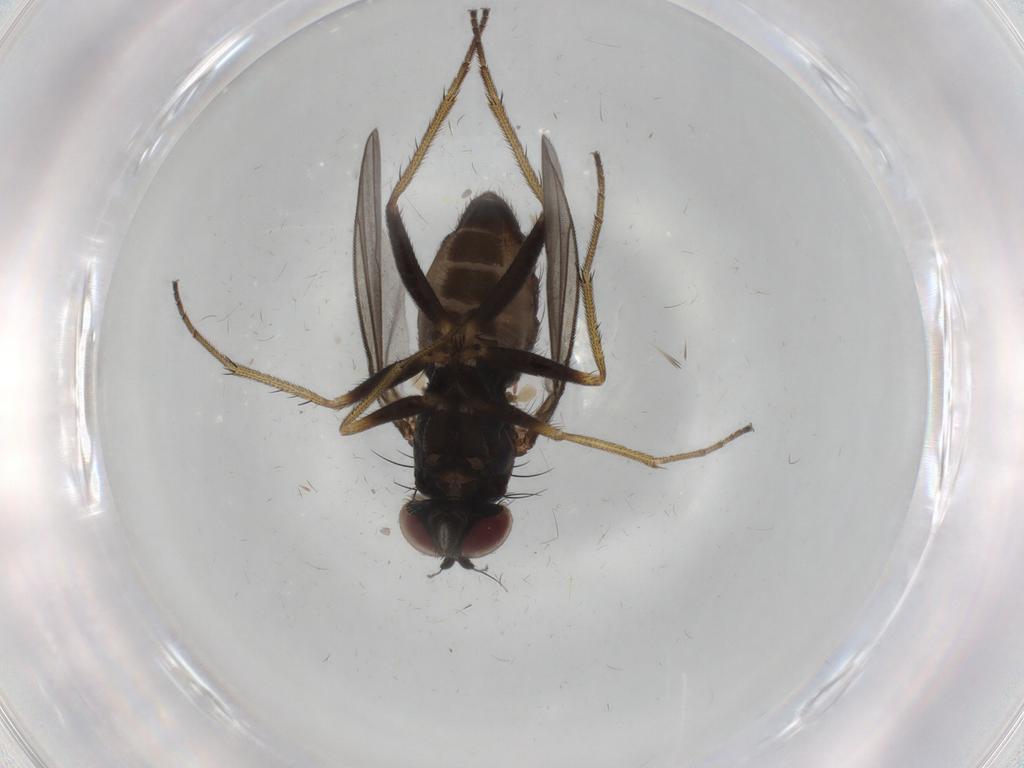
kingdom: Animalia
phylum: Arthropoda
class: Insecta
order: Diptera
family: Dolichopodidae
